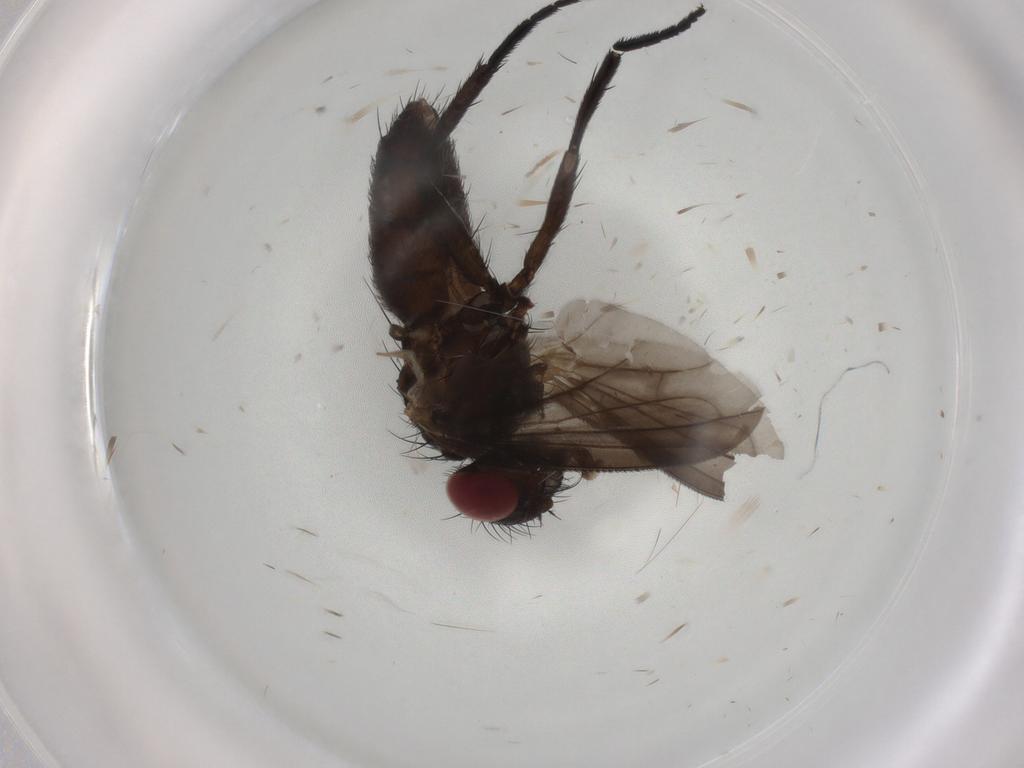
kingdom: Animalia
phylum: Arthropoda
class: Insecta
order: Diptera
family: Tachinidae
